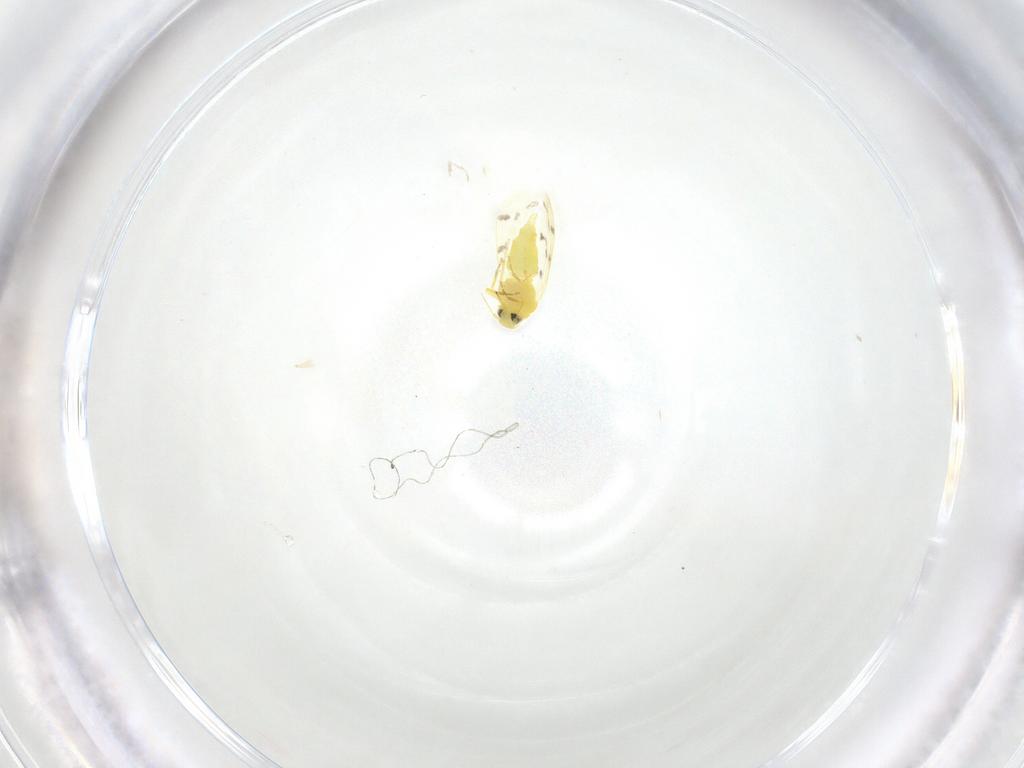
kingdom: Animalia
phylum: Arthropoda
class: Insecta
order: Hemiptera
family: Aleyrodidae
